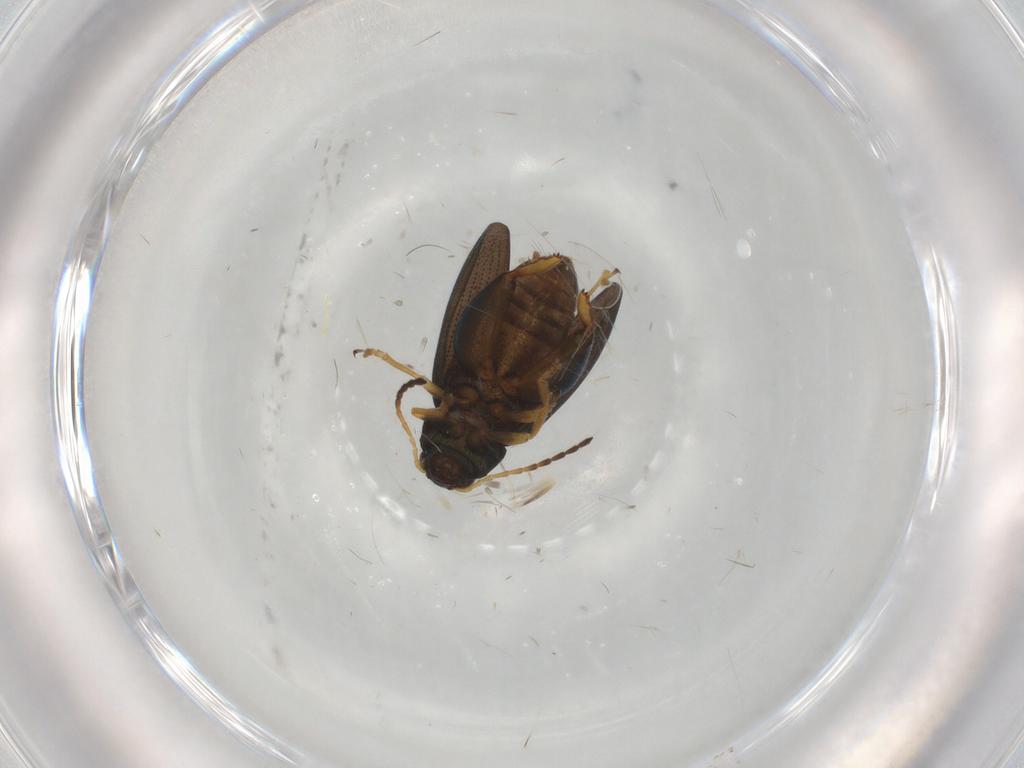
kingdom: Animalia
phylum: Arthropoda
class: Insecta
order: Coleoptera
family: Chrysomelidae
